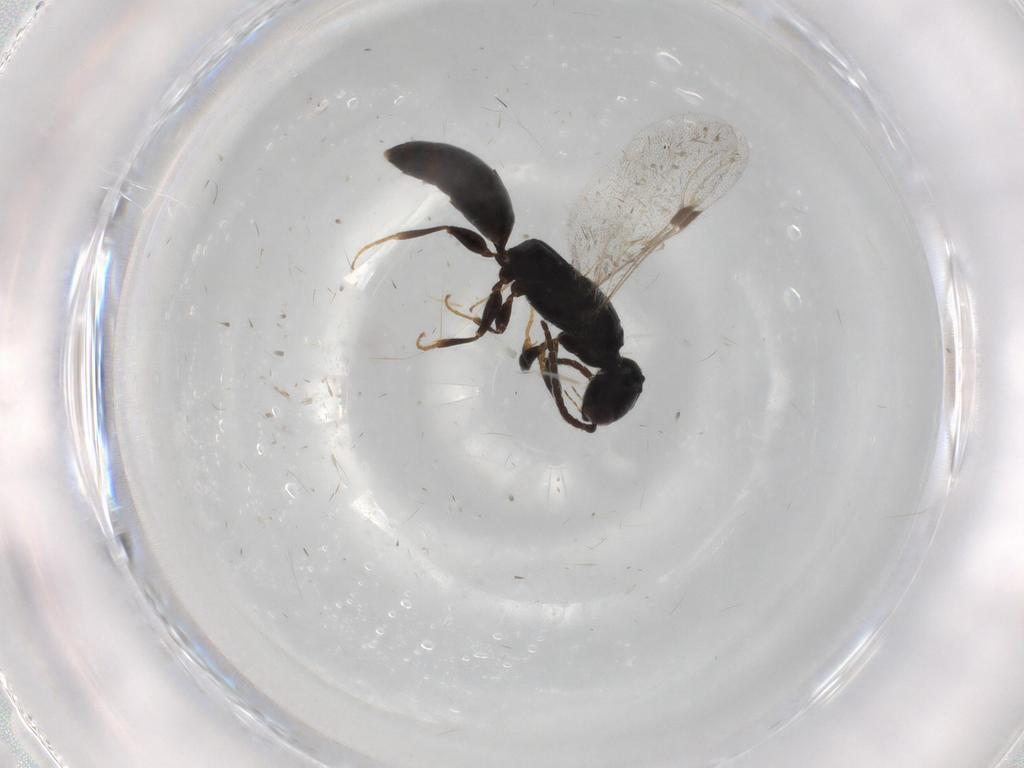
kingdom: Animalia
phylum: Arthropoda
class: Insecta
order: Hymenoptera
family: Bethylidae
